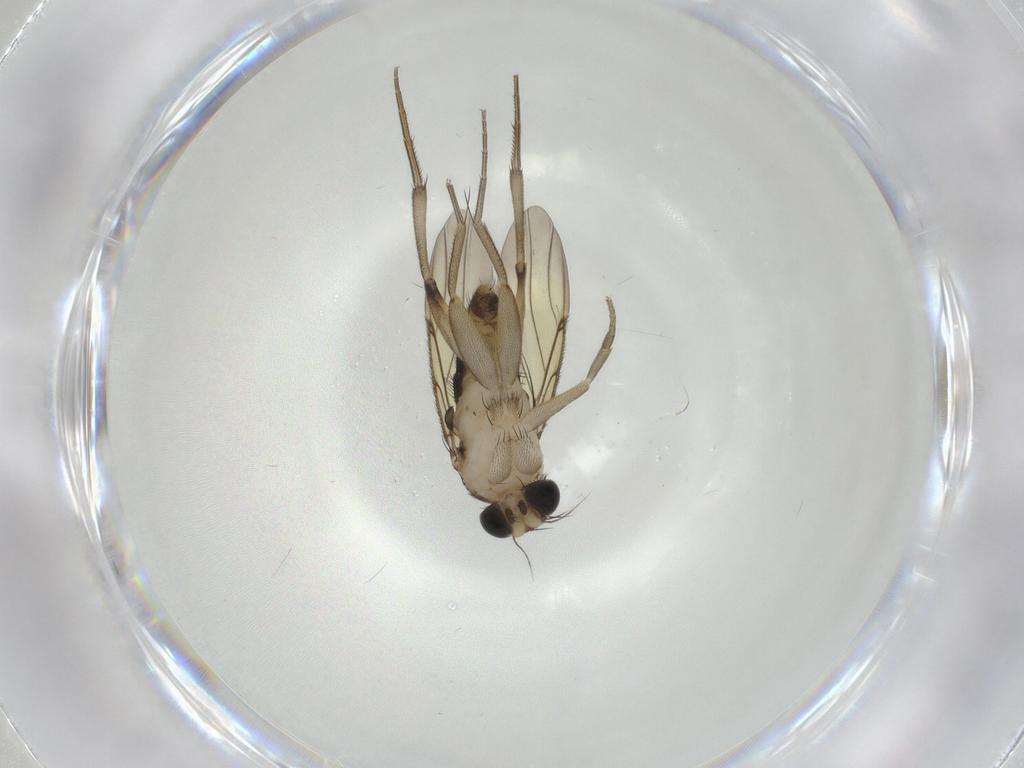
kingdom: Animalia
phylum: Arthropoda
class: Insecta
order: Diptera
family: Phoridae
